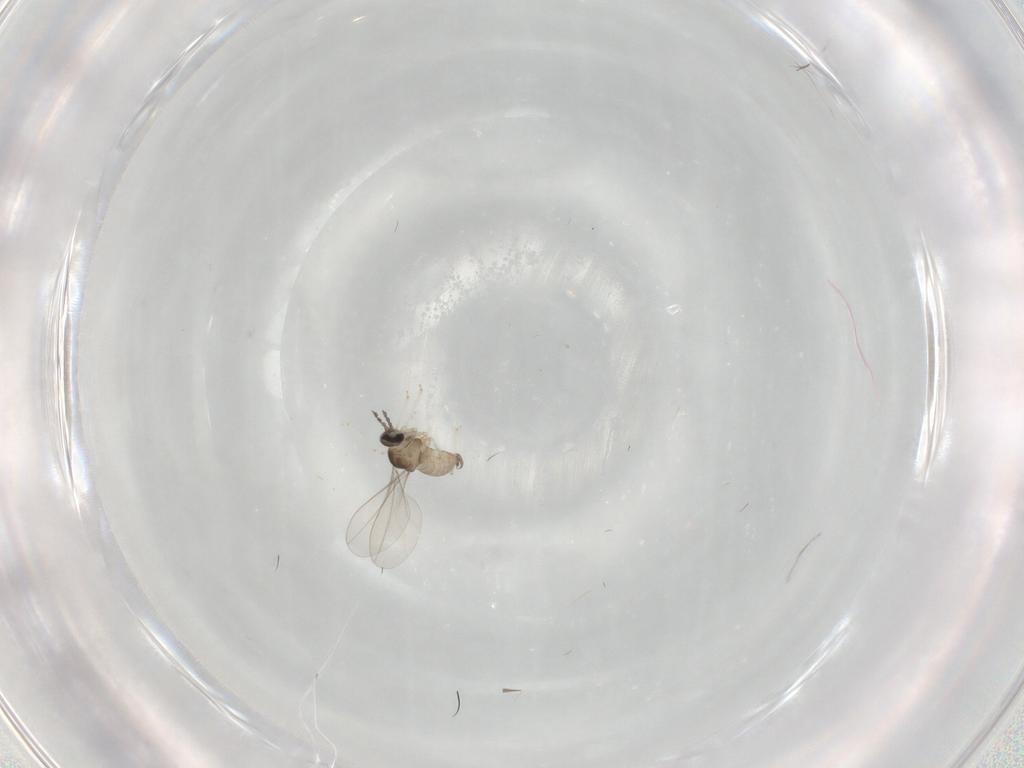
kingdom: Animalia
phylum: Arthropoda
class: Insecta
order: Diptera
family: Cecidomyiidae
